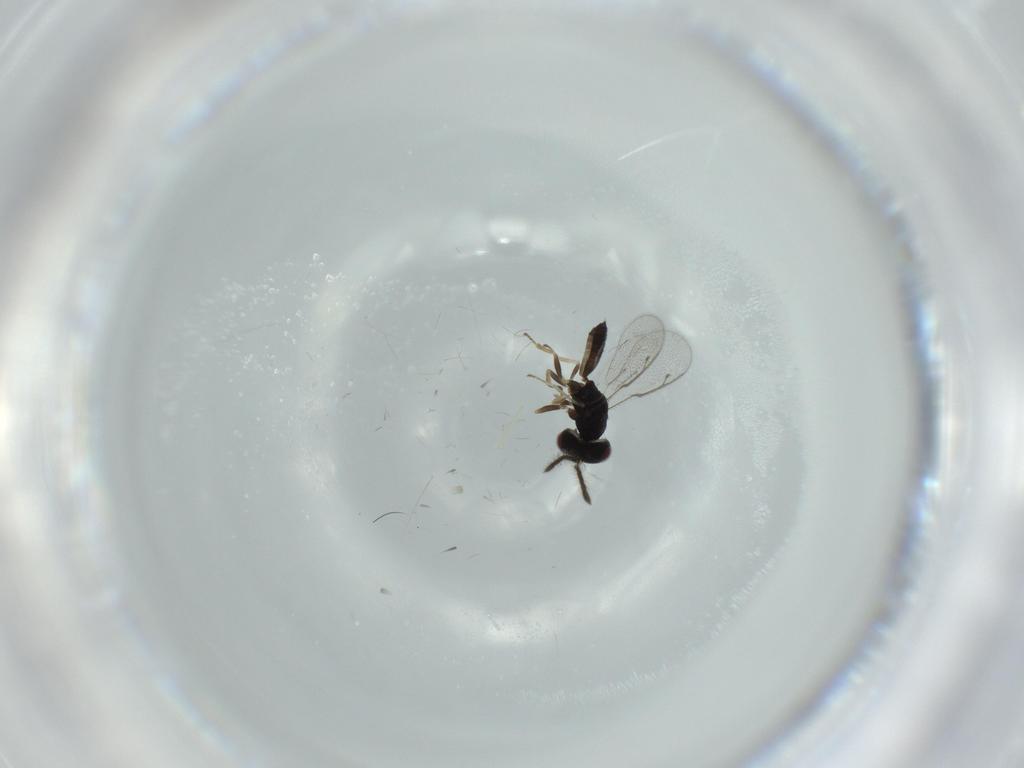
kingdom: Animalia
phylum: Arthropoda
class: Insecta
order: Hymenoptera
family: Pteromalidae
